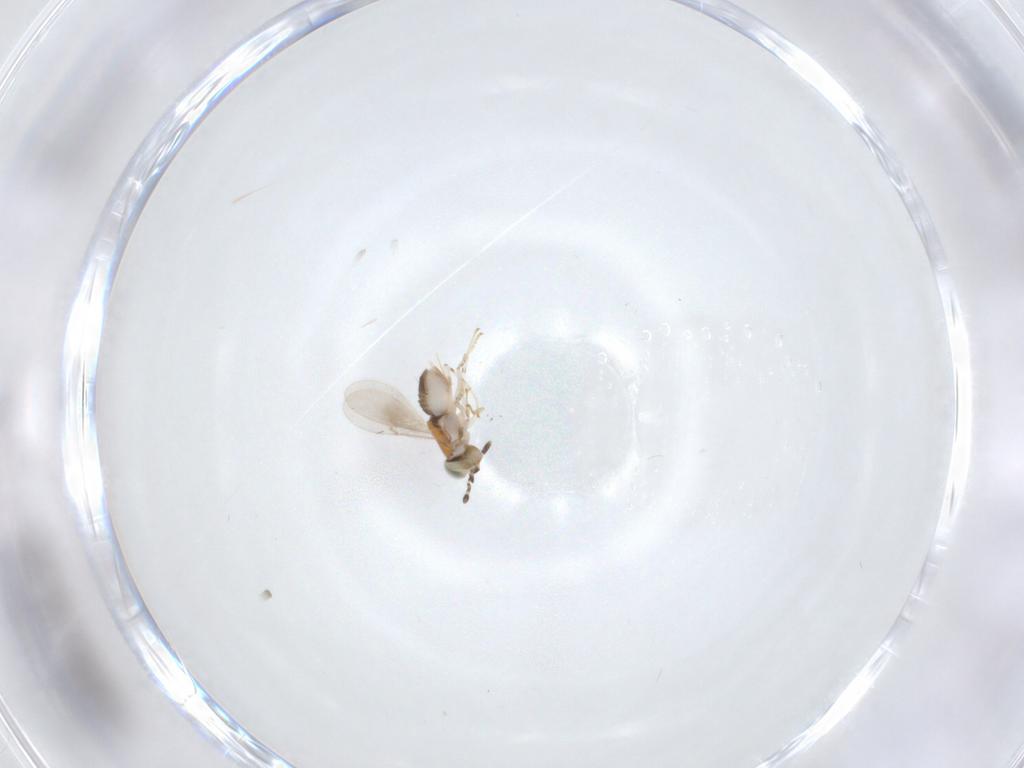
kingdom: Animalia
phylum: Arthropoda
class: Insecta
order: Hymenoptera
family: Encyrtidae
